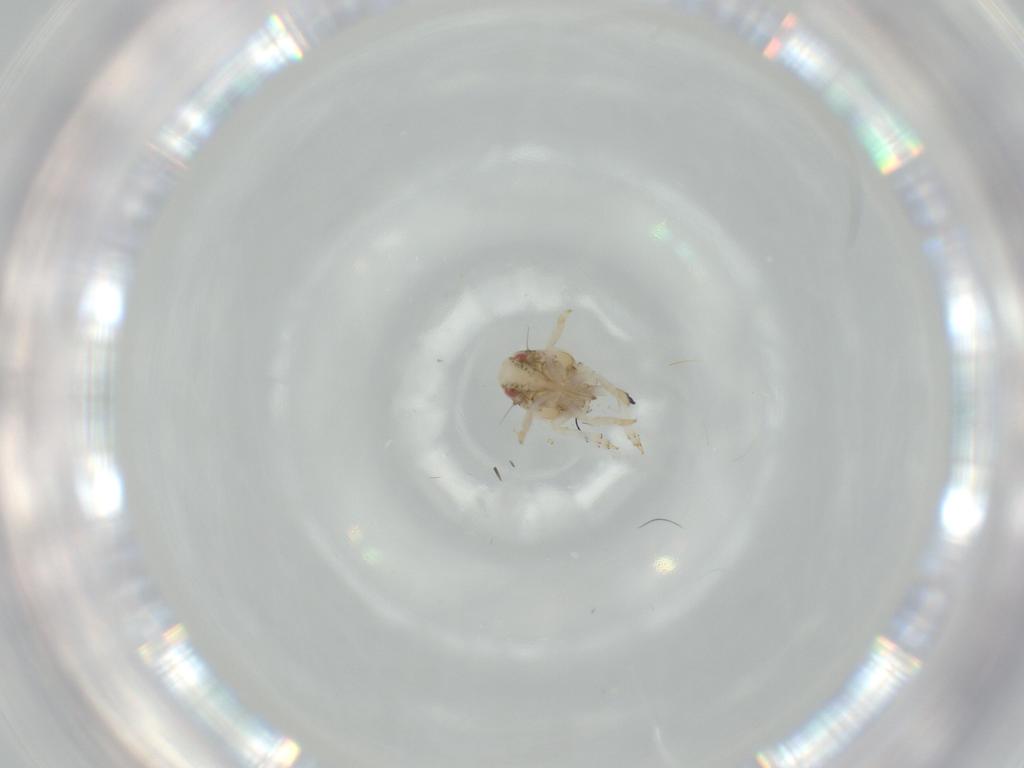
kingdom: Animalia
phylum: Arthropoda
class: Insecta
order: Hemiptera
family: Acanaloniidae
